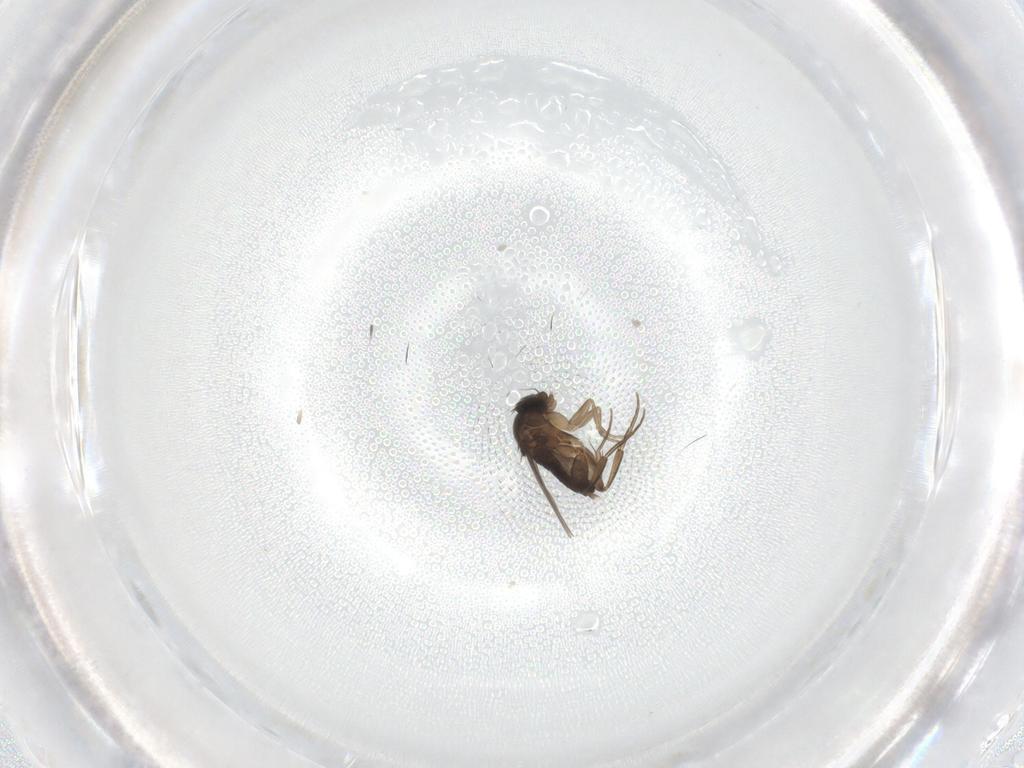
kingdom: Animalia
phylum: Arthropoda
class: Insecta
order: Diptera
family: Phoridae
